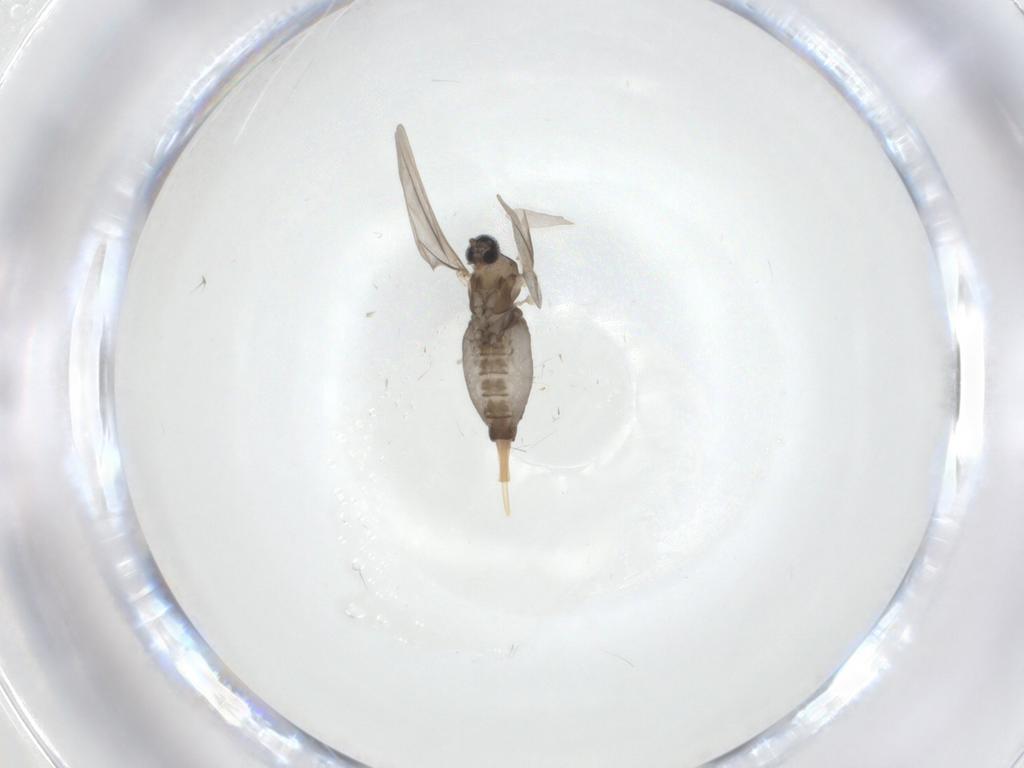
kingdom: Animalia
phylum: Arthropoda
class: Insecta
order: Diptera
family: Cecidomyiidae
